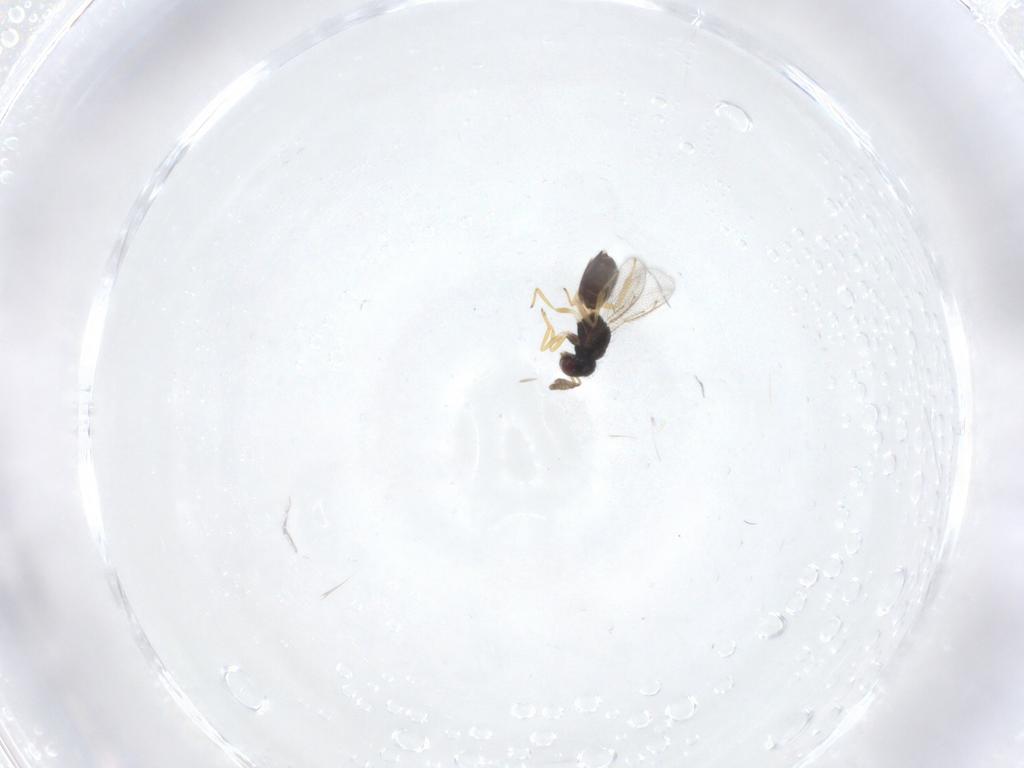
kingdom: Animalia
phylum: Arthropoda
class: Insecta
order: Hymenoptera
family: Eulophidae
